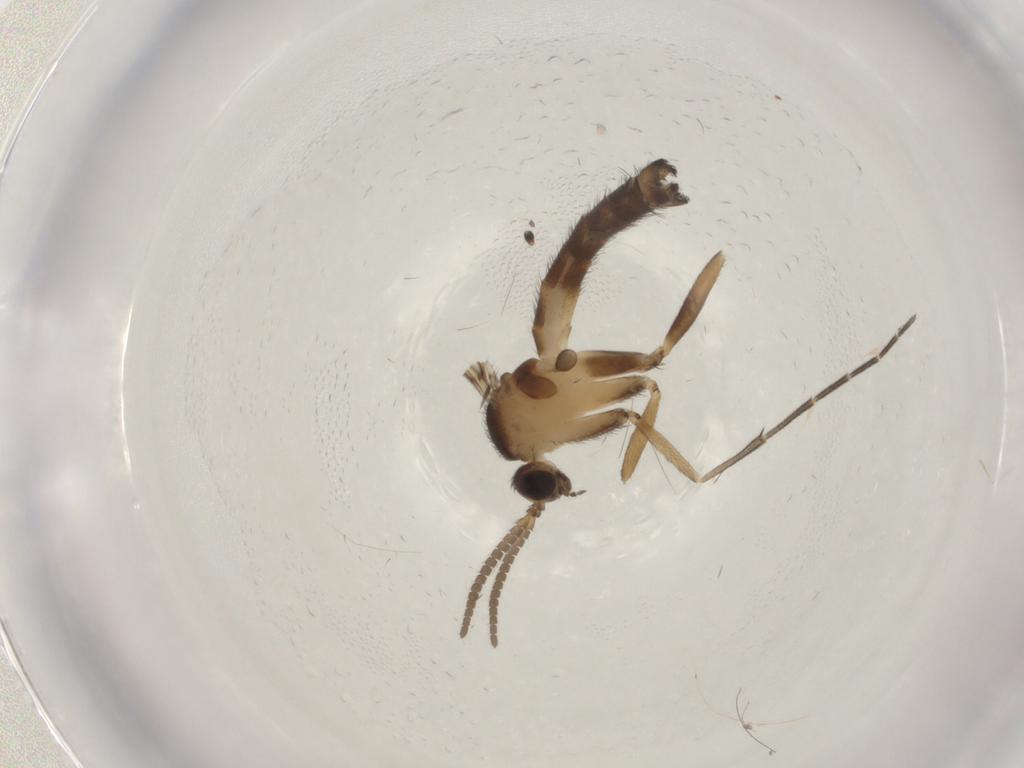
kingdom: Animalia
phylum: Arthropoda
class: Insecta
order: Diptera
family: Keroplatidae
